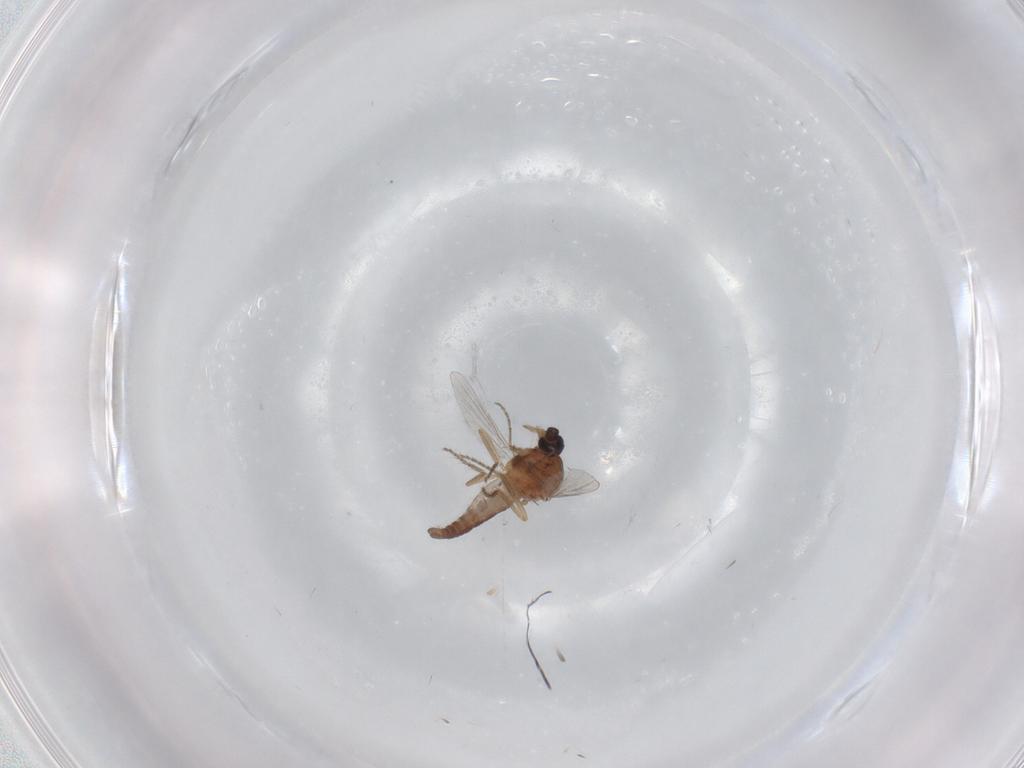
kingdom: Animalia
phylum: Arthropoda
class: Insecta
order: Diptera
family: Ceratopogonidae
